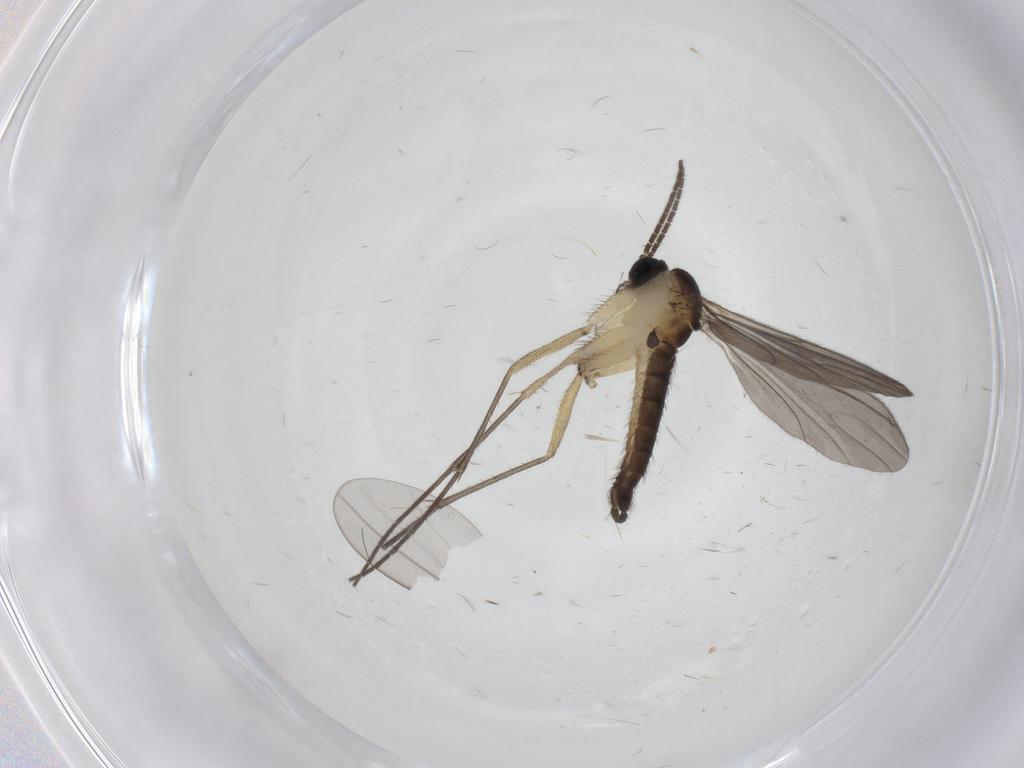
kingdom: Animalia
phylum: Arthropoda
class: Insecta
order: Diptera
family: Sciaridae
